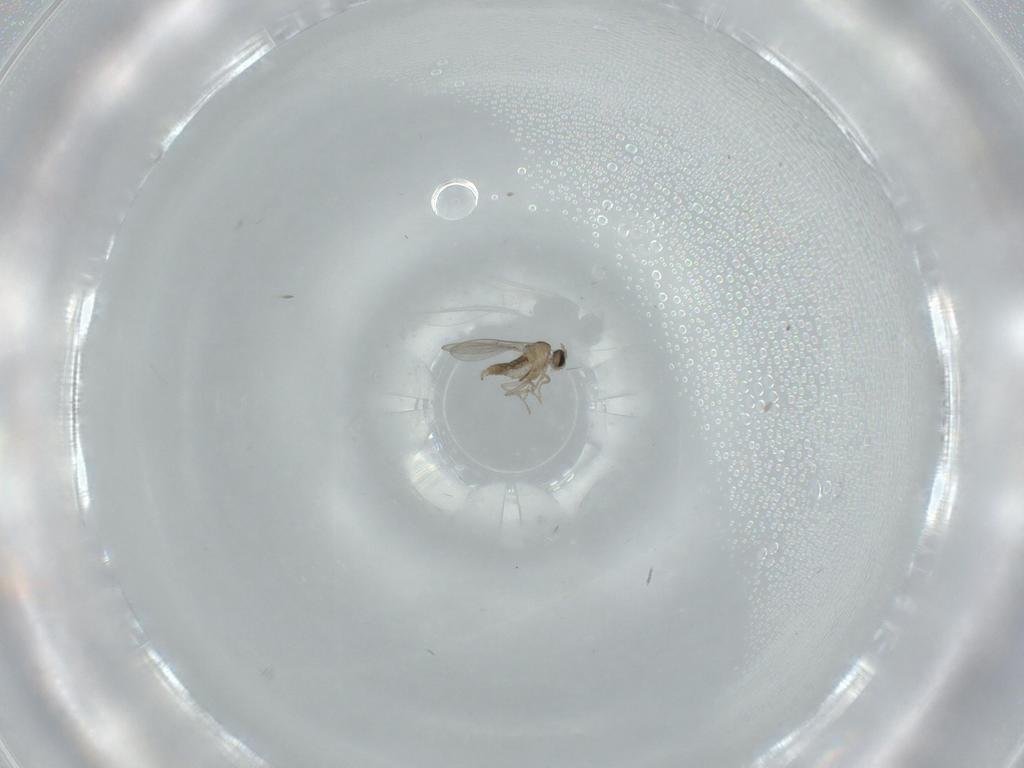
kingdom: Animalia
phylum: Arthropoda
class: Insecta
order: Diptera
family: Cecidomyiidae
